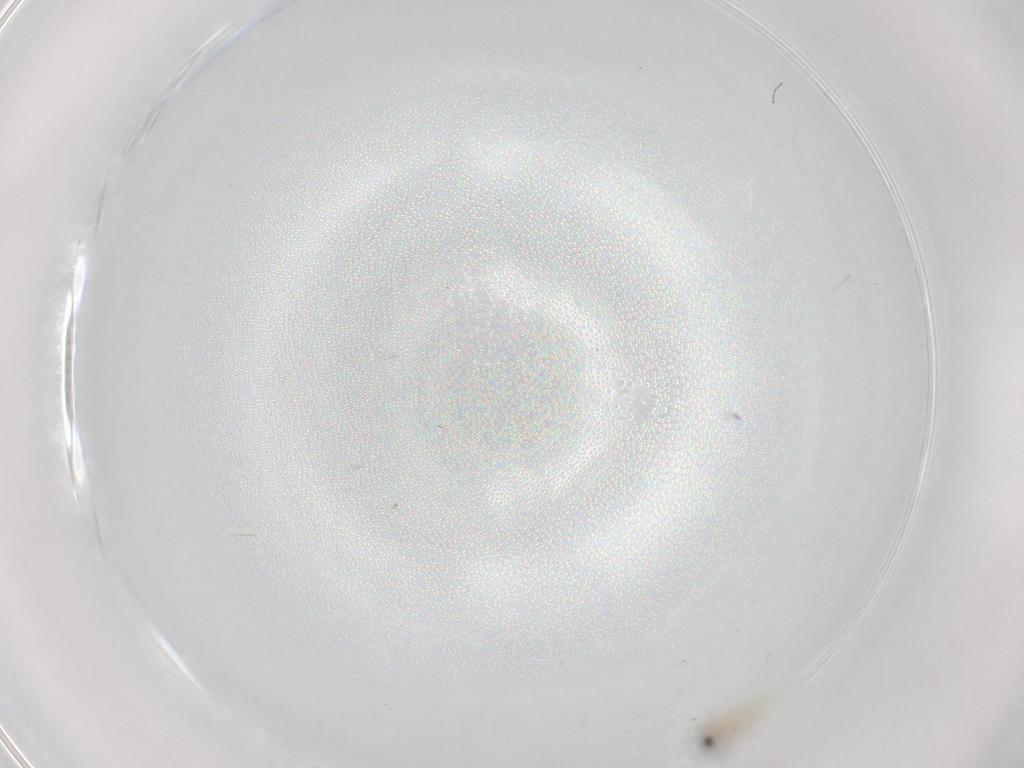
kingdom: Animalia
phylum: Arthropoda
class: Insecta
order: Diptera
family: Cecidomyiidae
